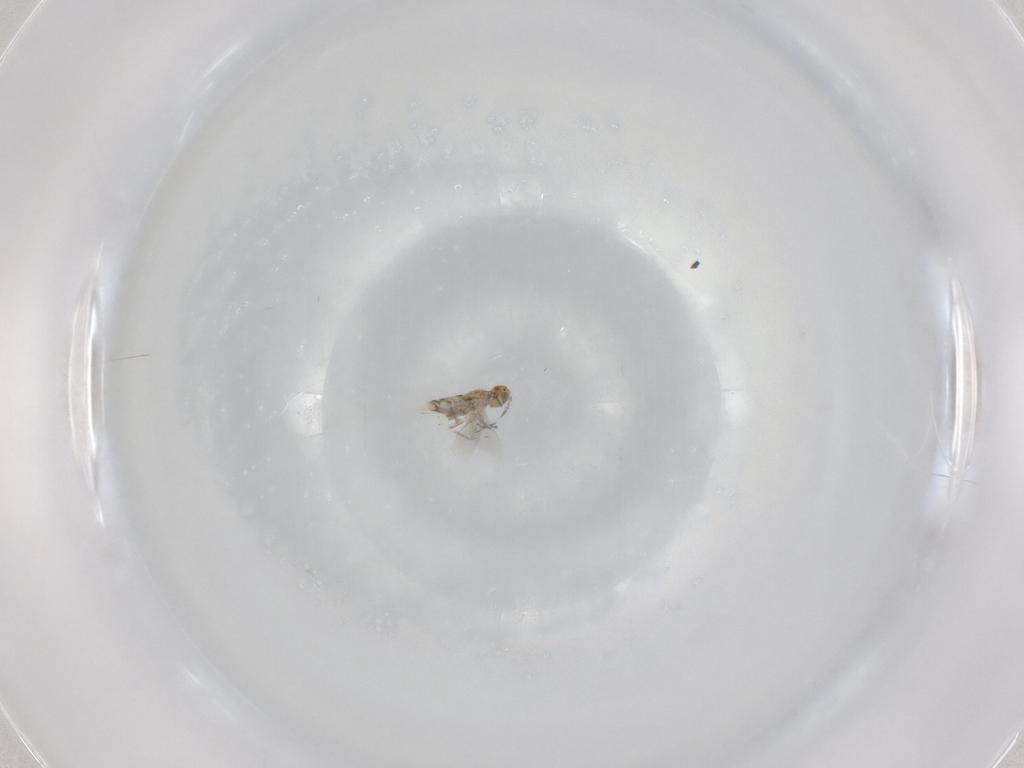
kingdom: Animalia
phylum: Arthropoda
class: Insecta
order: Hymenoptera
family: Aphelinidae
